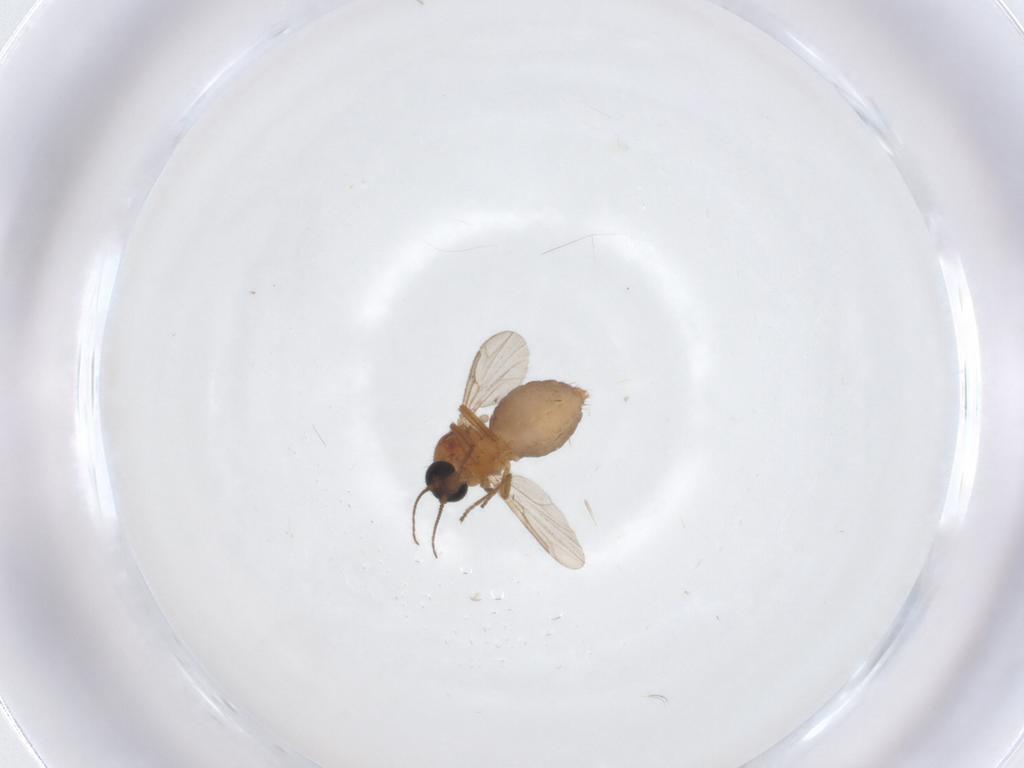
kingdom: Animalia
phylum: Arthropoda
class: Insecta
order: Diptera
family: Ceratopogonidae
